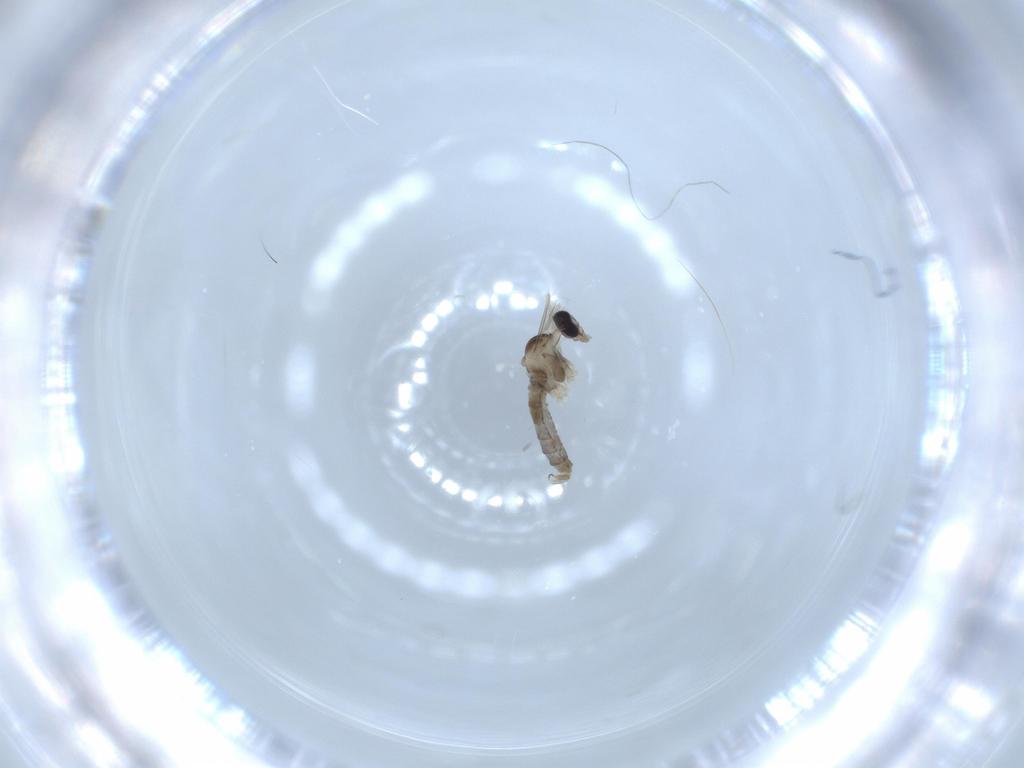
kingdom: Animalia
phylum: Arthropoda
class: Insecta
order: Diptera
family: Cecidomyiidae
